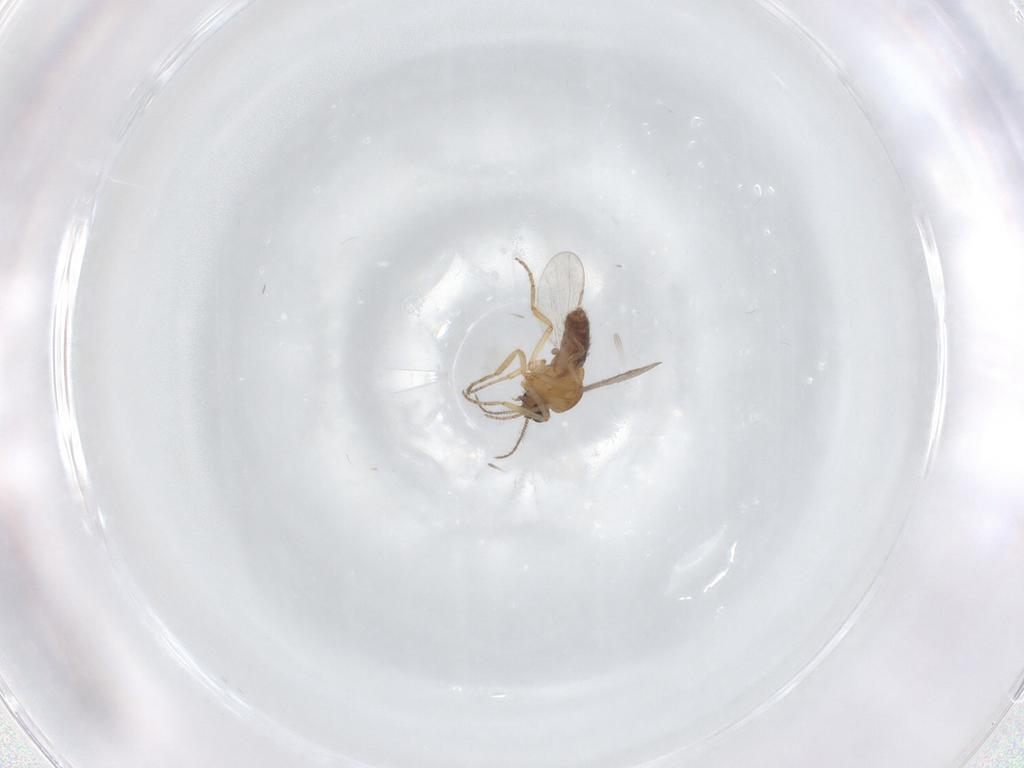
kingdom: Animalia
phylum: Arthropoda
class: Insecta
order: Diptera
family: Ceratopogonidae
